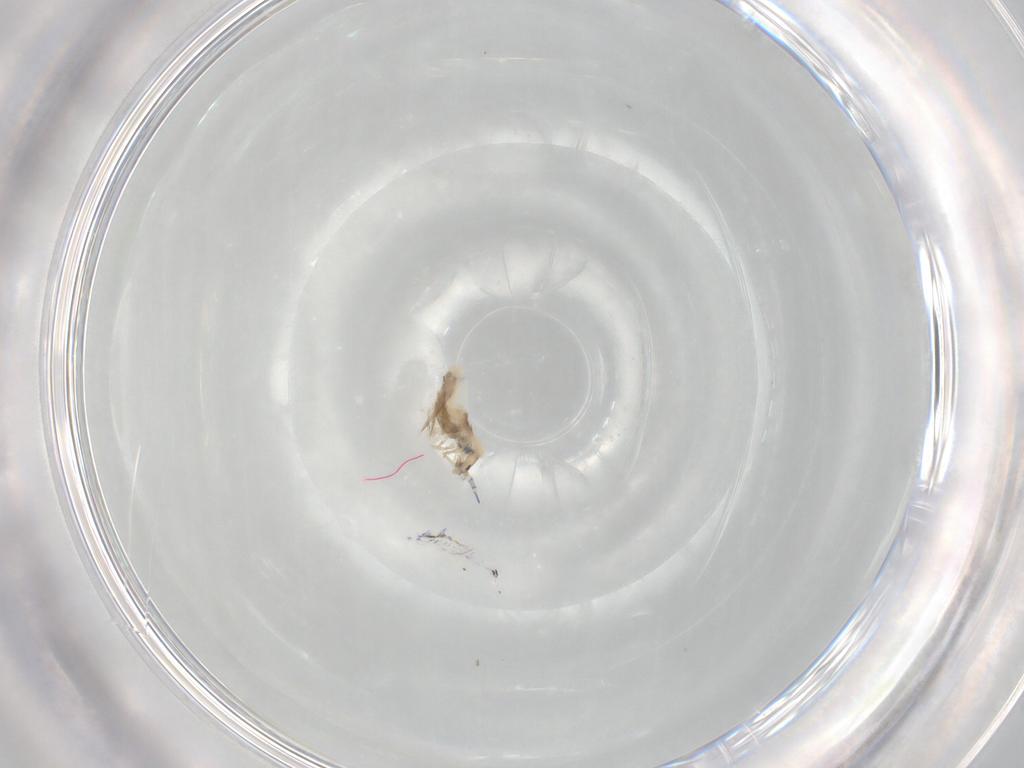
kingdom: Animalia
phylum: Arthropoda
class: Collembola
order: Entomobryomorpha
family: Entomobryidae
